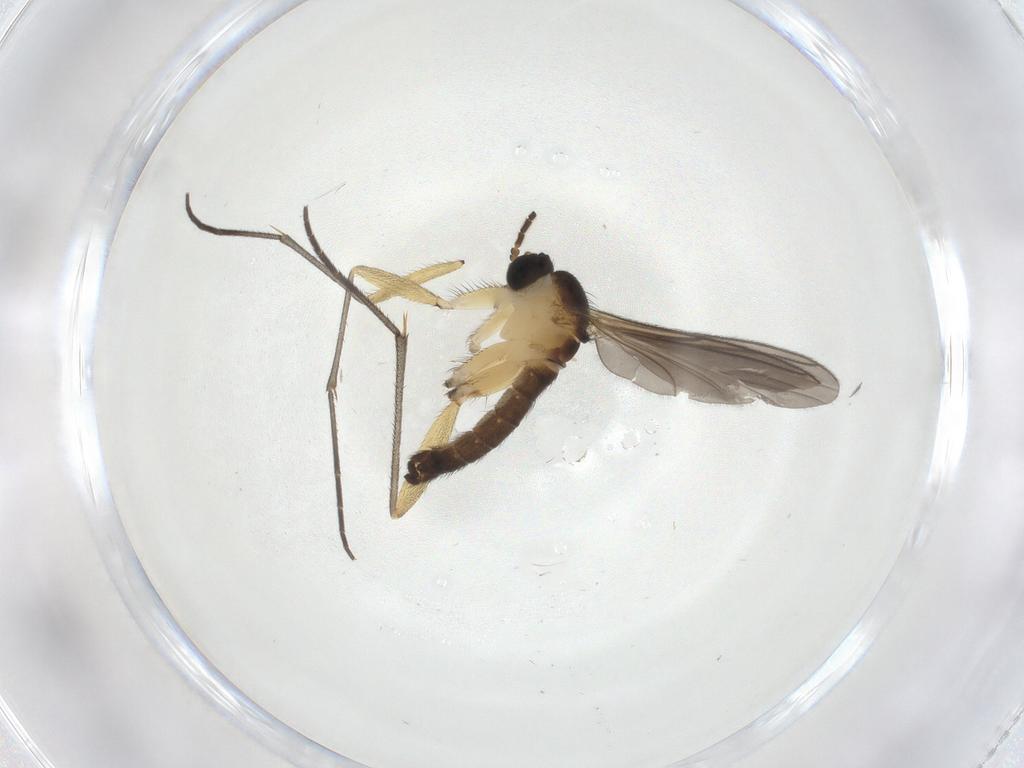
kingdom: Animalia
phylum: Arthropoda
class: Insecta
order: Diptera
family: Sciaridae
